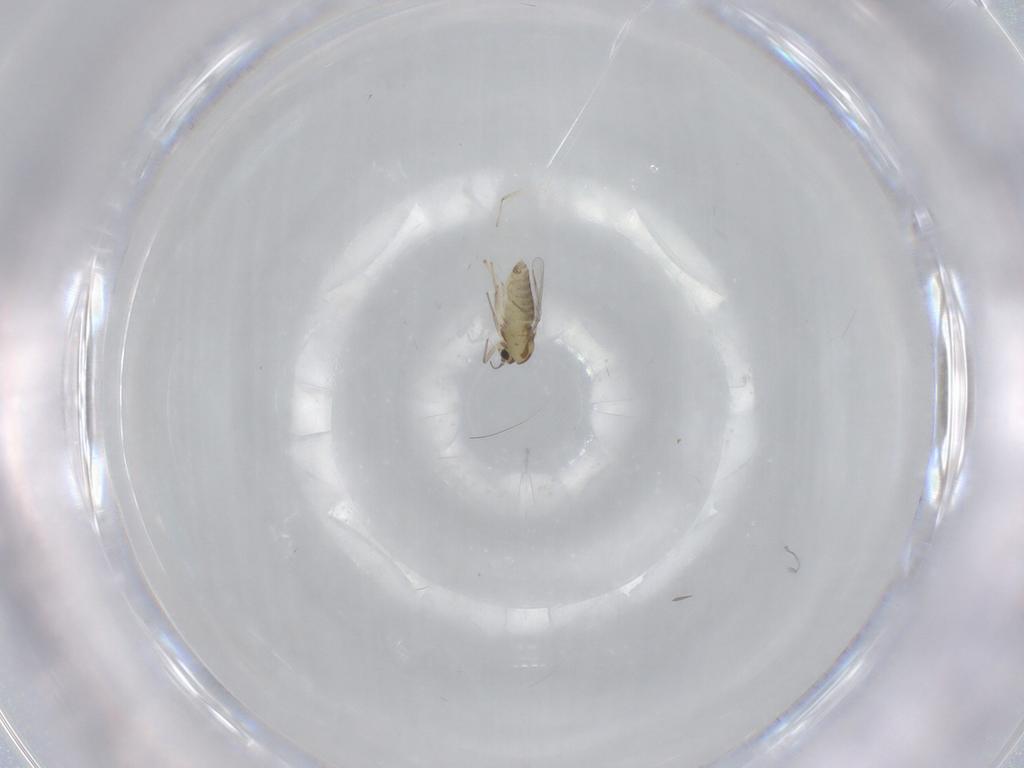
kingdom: Animalia
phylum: Arthropoda
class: Insecta
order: Diptera
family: Chironomidae
